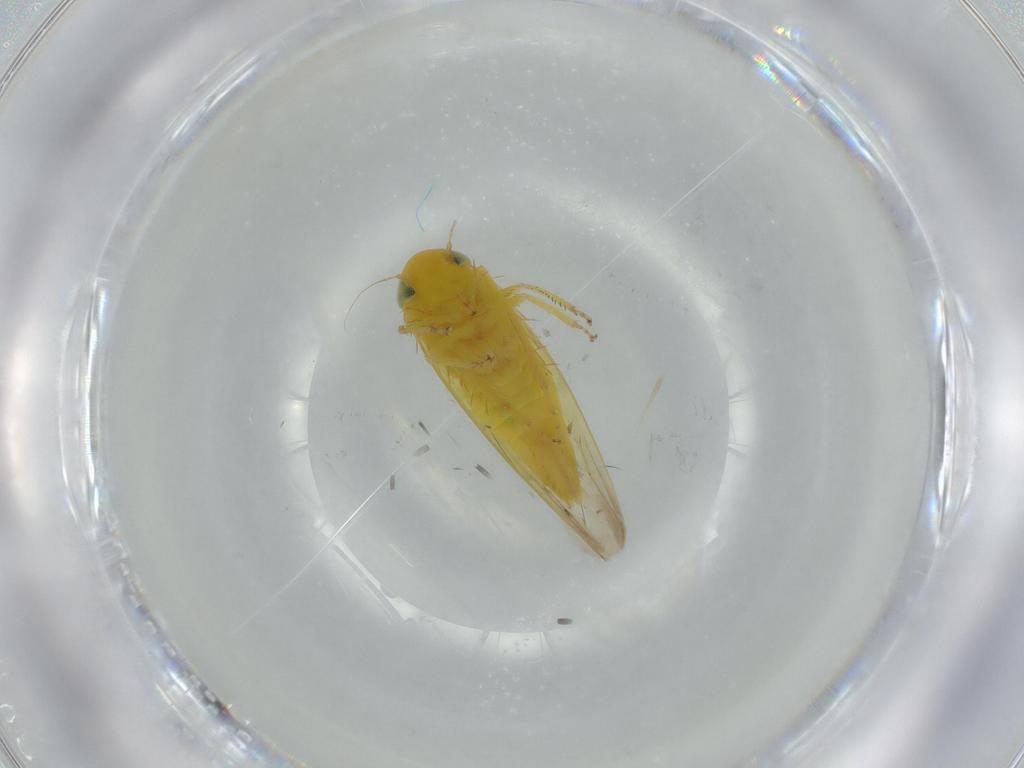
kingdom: Animalia
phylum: Arthropoda
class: Insecta
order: Hemiptera
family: Cicadellidae
